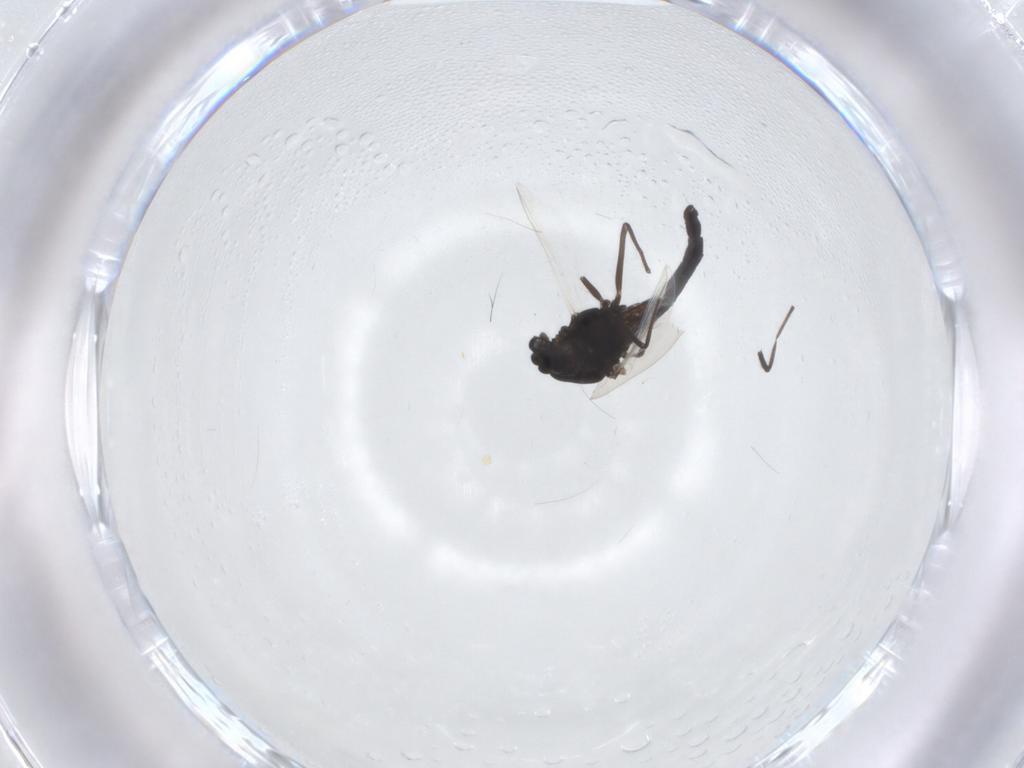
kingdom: Animalia
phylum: Arthropoda
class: Insecta
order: Diptera
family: Chironomidae
